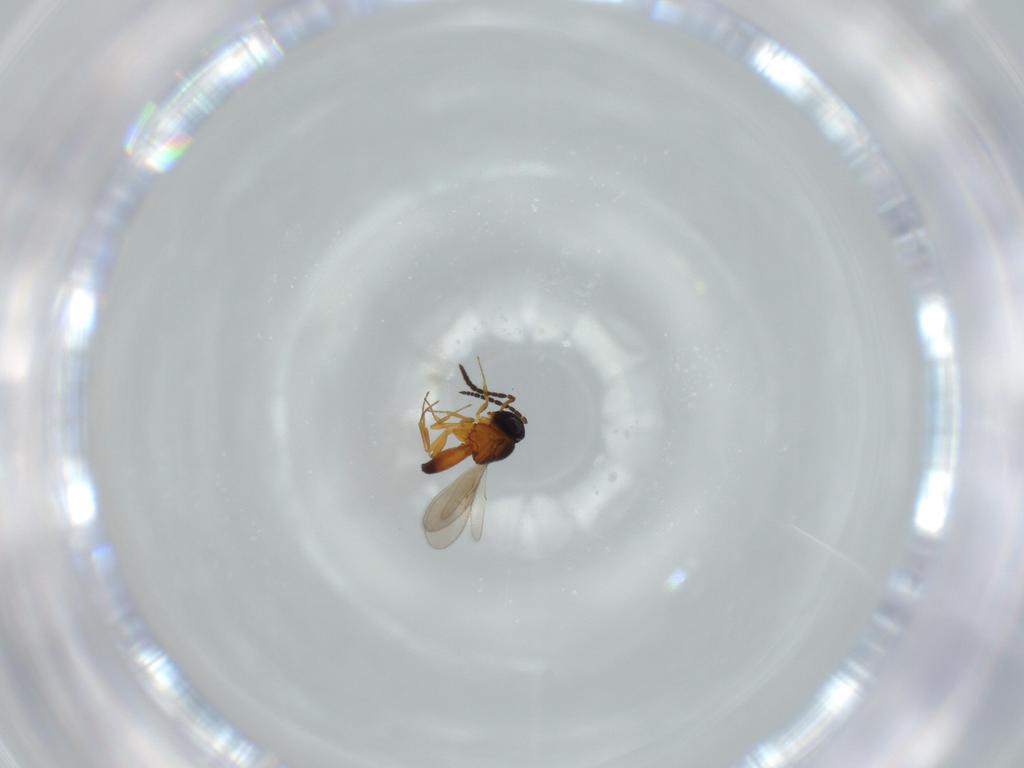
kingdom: Animalia
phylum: Arthropoda
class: Insecta
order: Hymenoptera
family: Scelionidae
